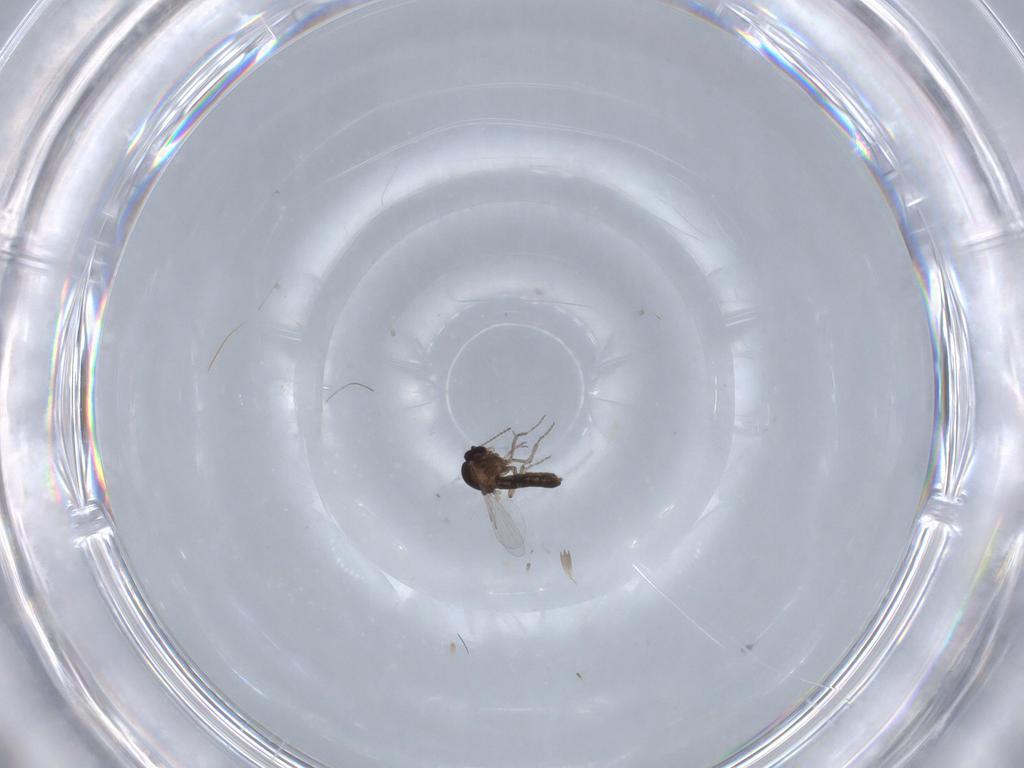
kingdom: Animalia
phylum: Arthropoda
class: Insecta
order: Diptera
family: Ceratopogonidae
